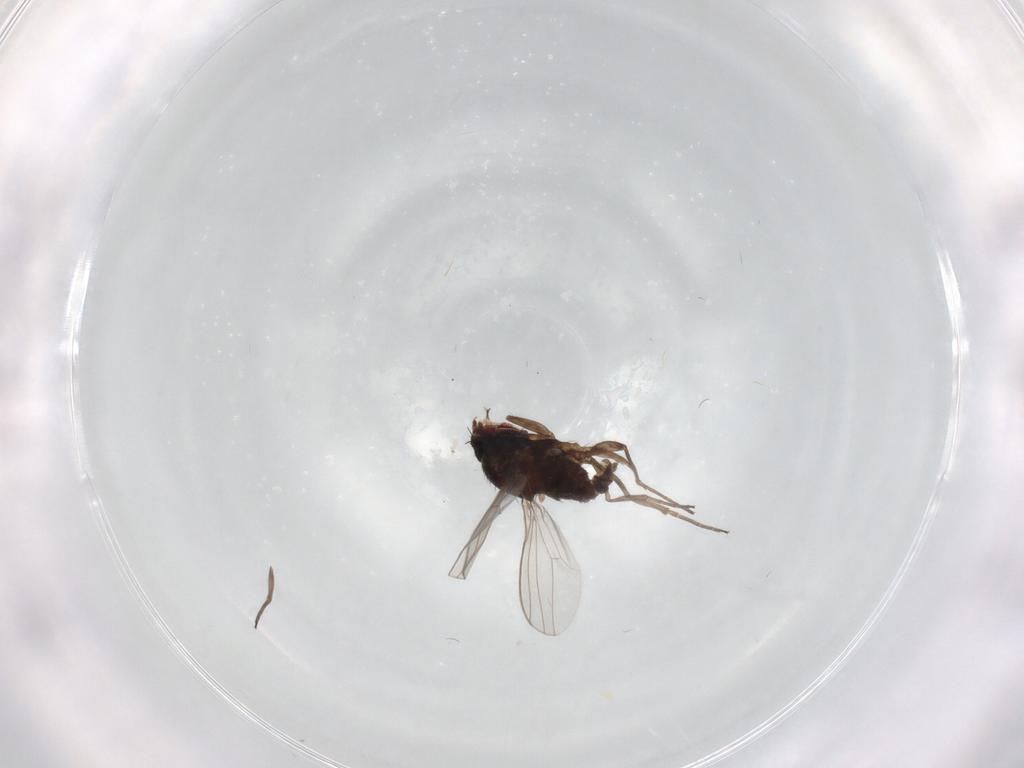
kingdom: Animalia
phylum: Arthropoda
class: Insecta
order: Diptera
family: Dolichopodidae
